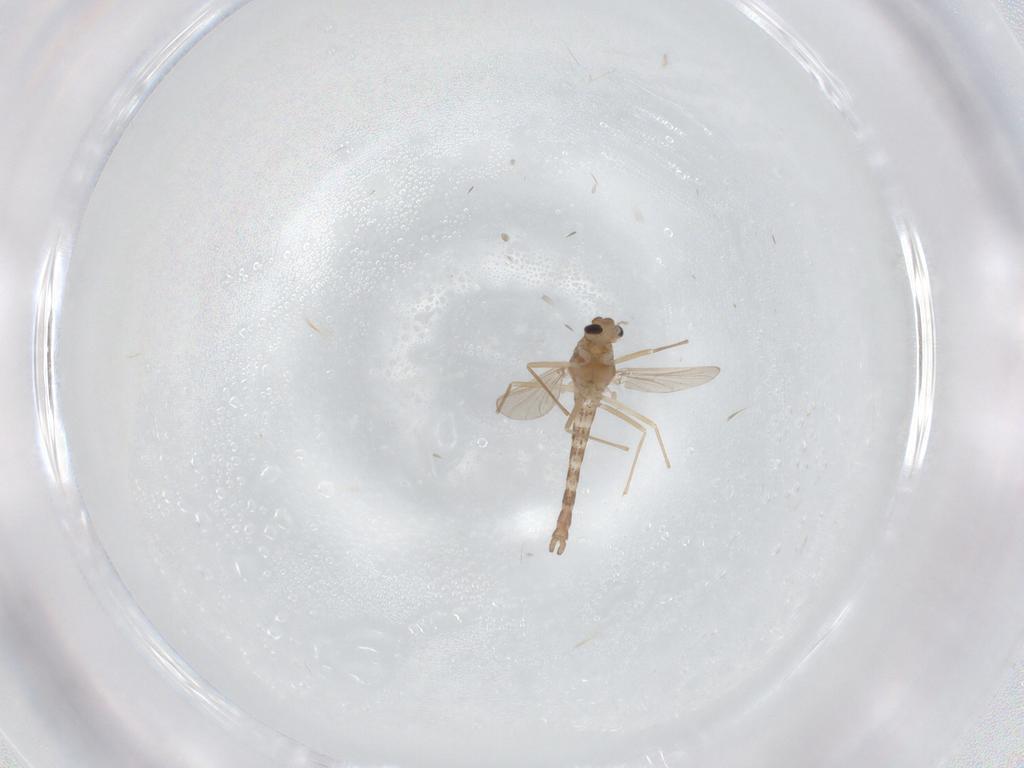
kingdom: Animalia
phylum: Arthropoda
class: Insecta
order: Diptera
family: Chironomidae
